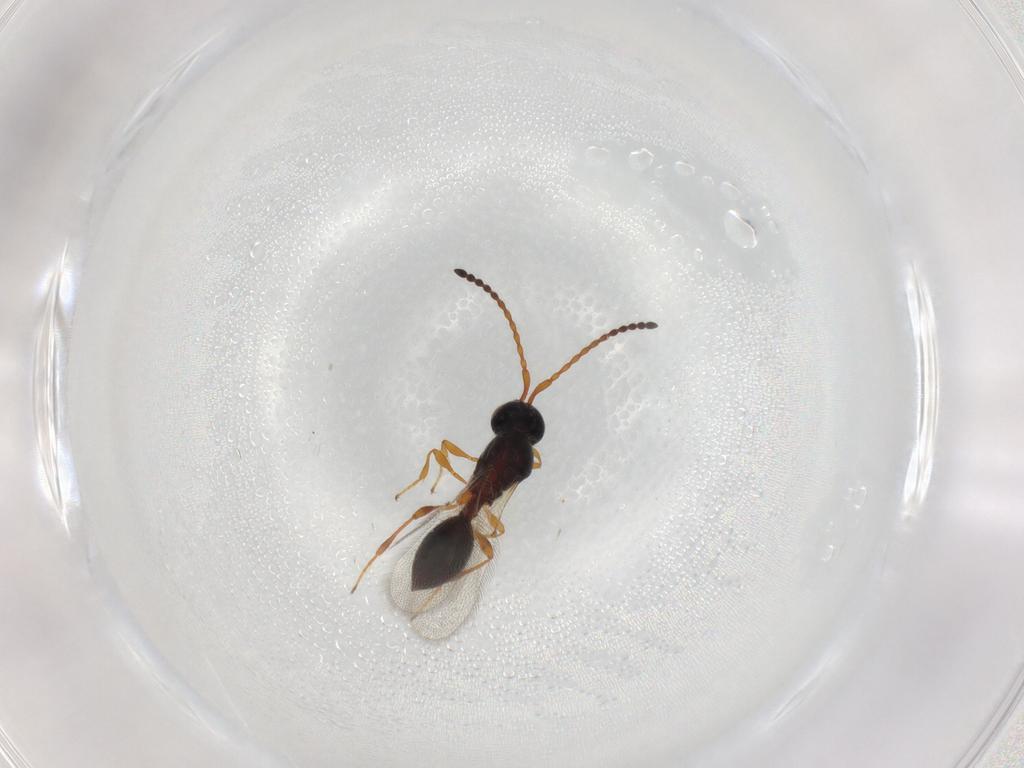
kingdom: Animalia
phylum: Arthropoda
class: Insecta
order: Hymenoptera
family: Diapriidae
